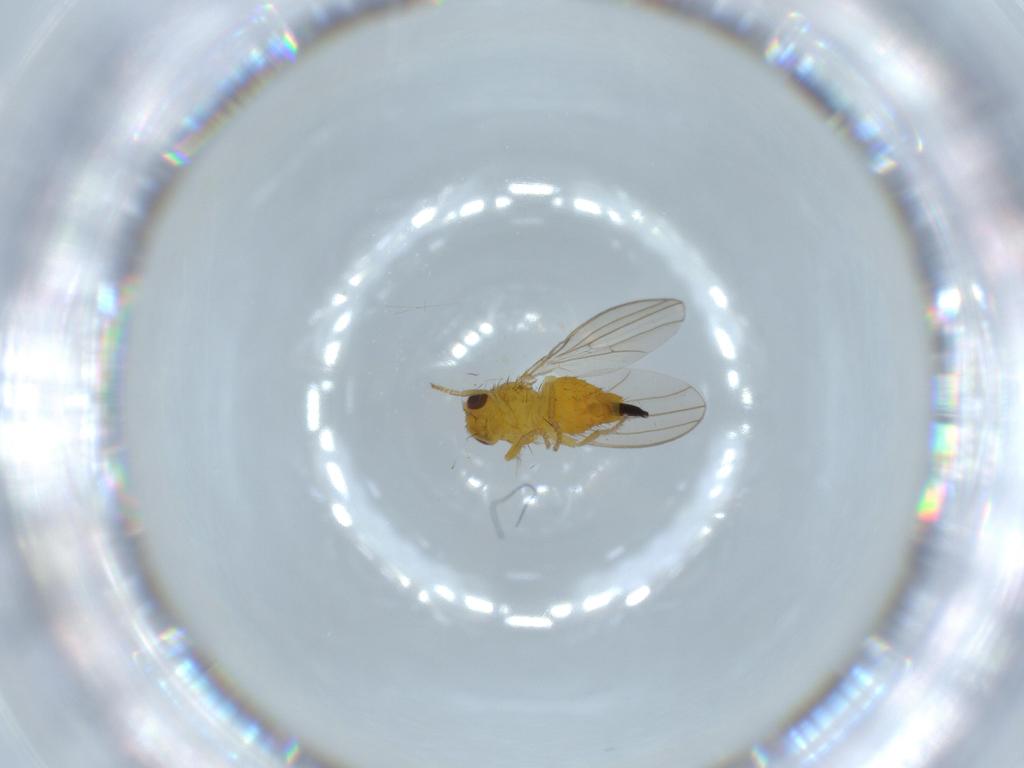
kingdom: Animalia
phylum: Arthropoda
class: Insecta
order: Diptera
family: Fergusoninidae
